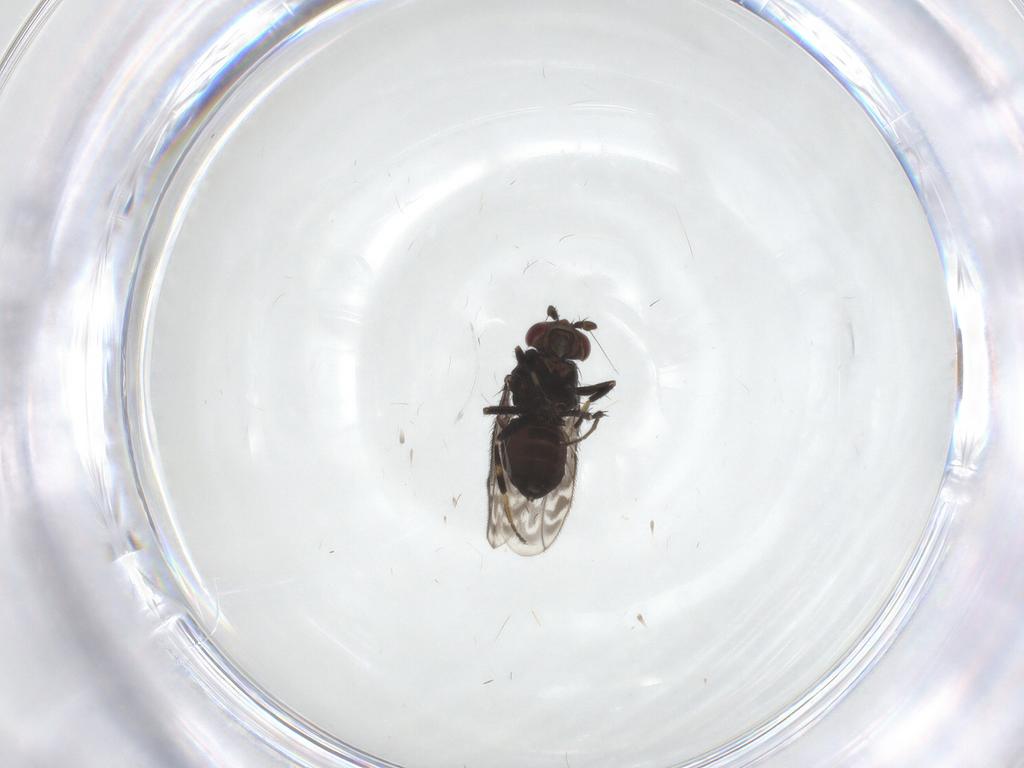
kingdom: Animalia
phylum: Arthropoda
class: Insecta
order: Diptera
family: Sphaeroceridae
